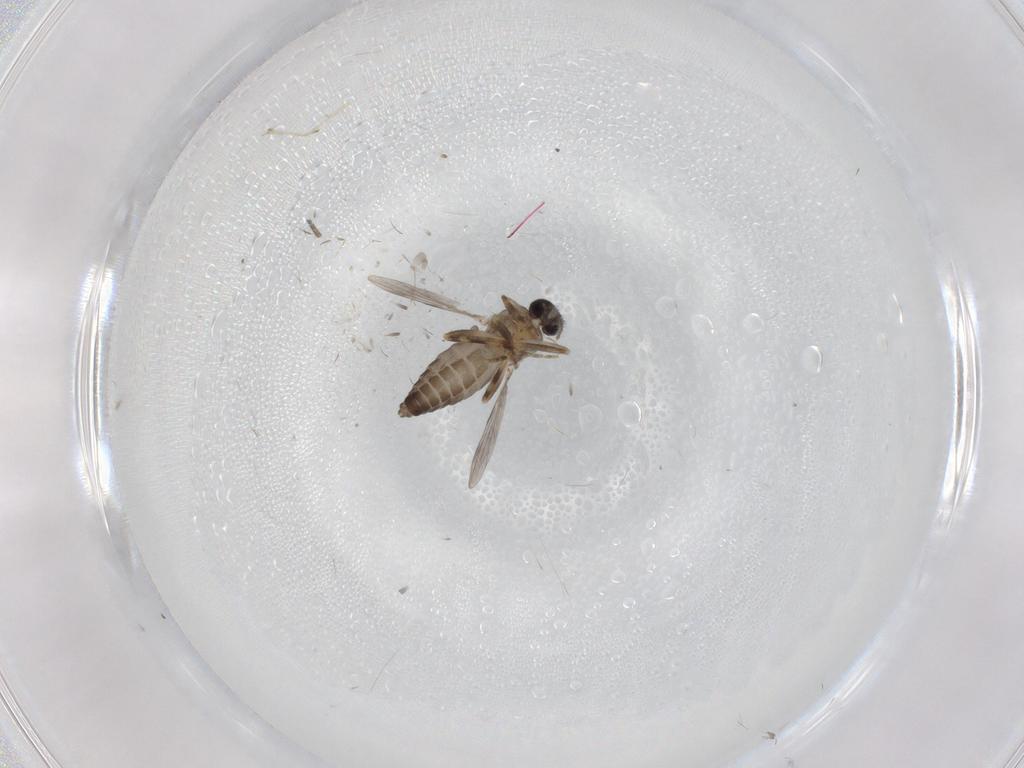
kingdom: Animalia
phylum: Arthropoda
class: Insecta
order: Diptera
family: Ceratopogonidae
